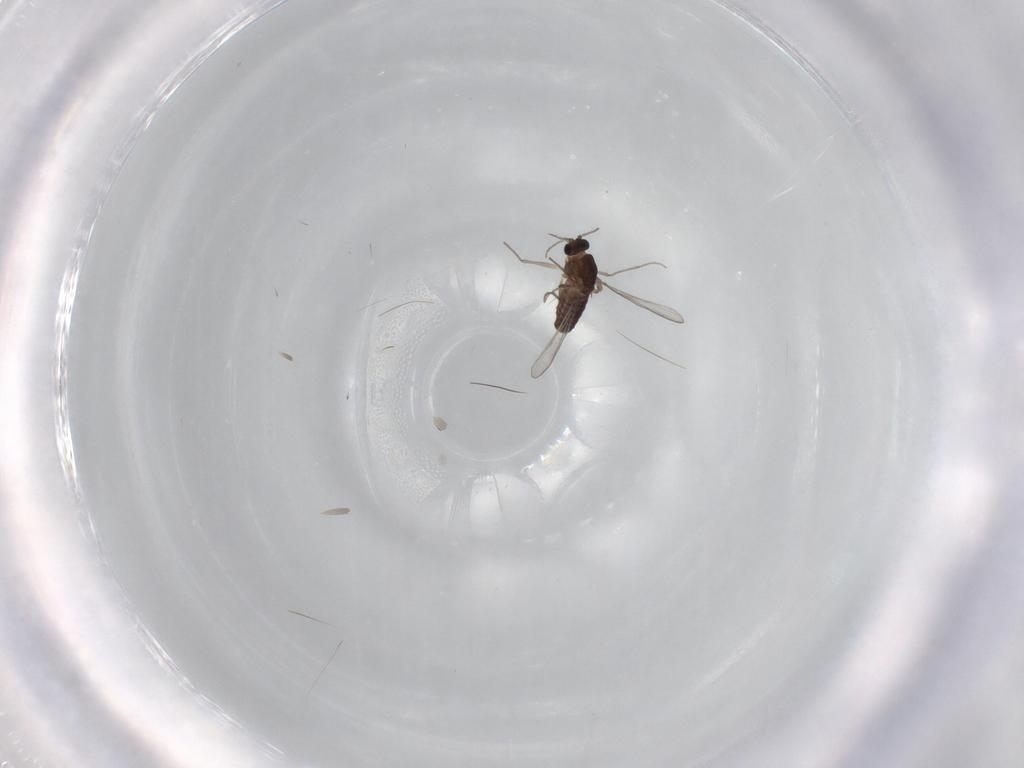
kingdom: Animalia
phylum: Arthropoda
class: Insecta
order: Diptera
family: Chironomidae
